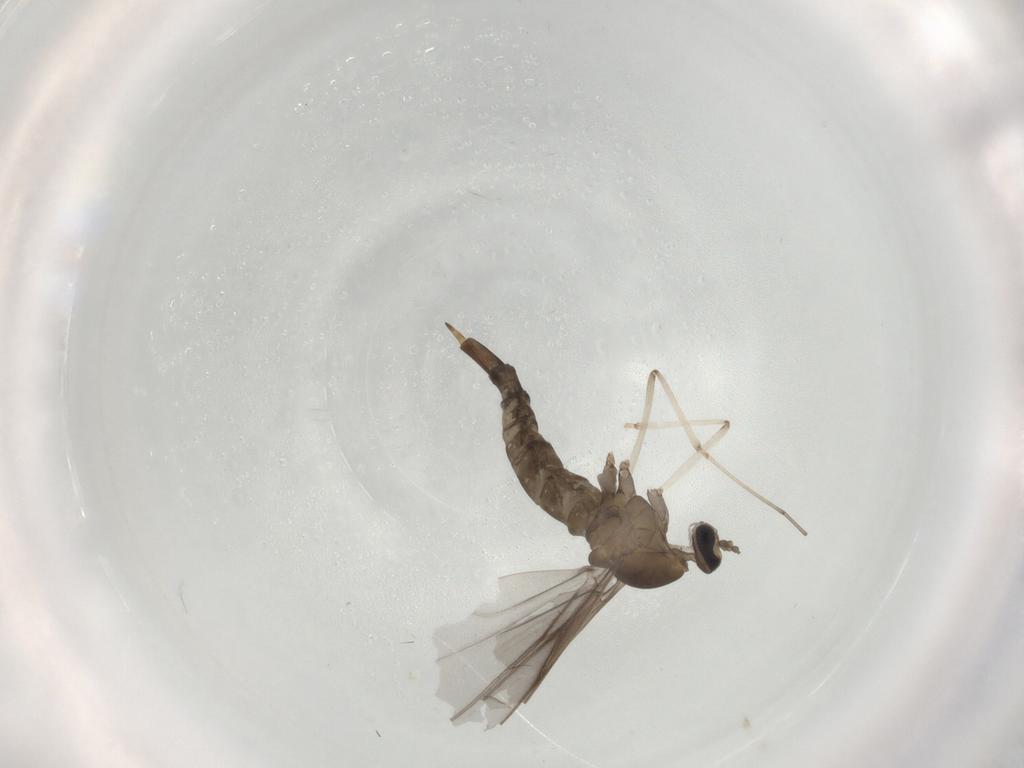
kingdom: Animalia
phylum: Arthropoda
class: Insecta
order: Diptera
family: Cecidomyiidae
